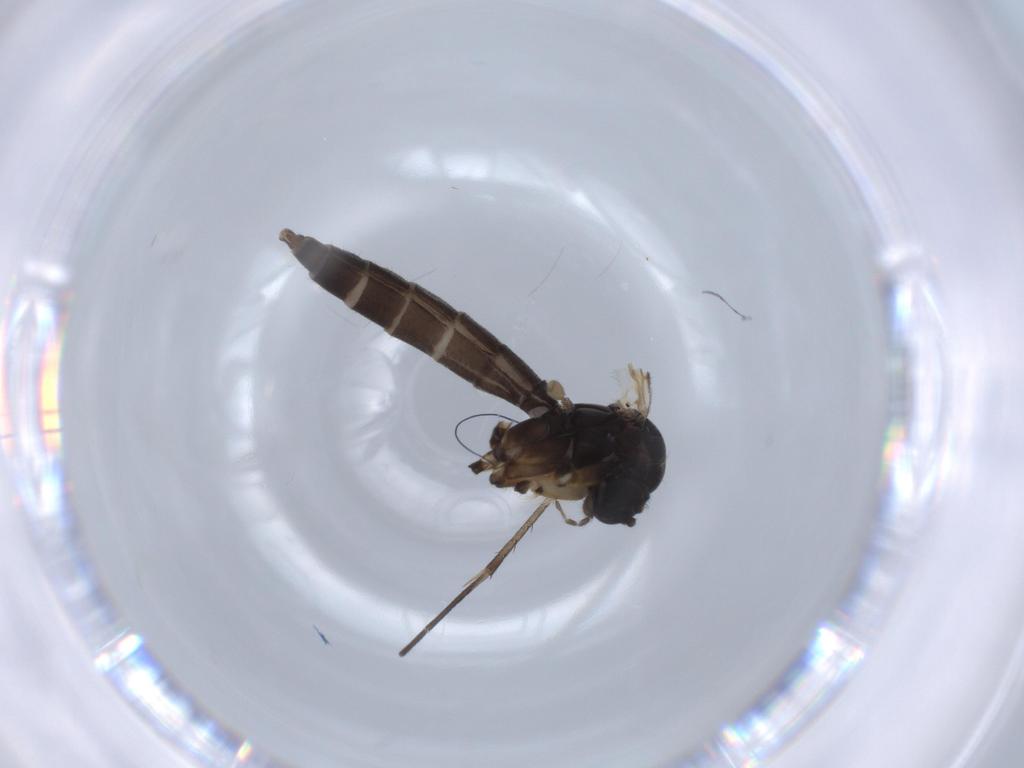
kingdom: Animalia
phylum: Arthropoda
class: Insecta
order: Diptera
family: Mycetophilidae
